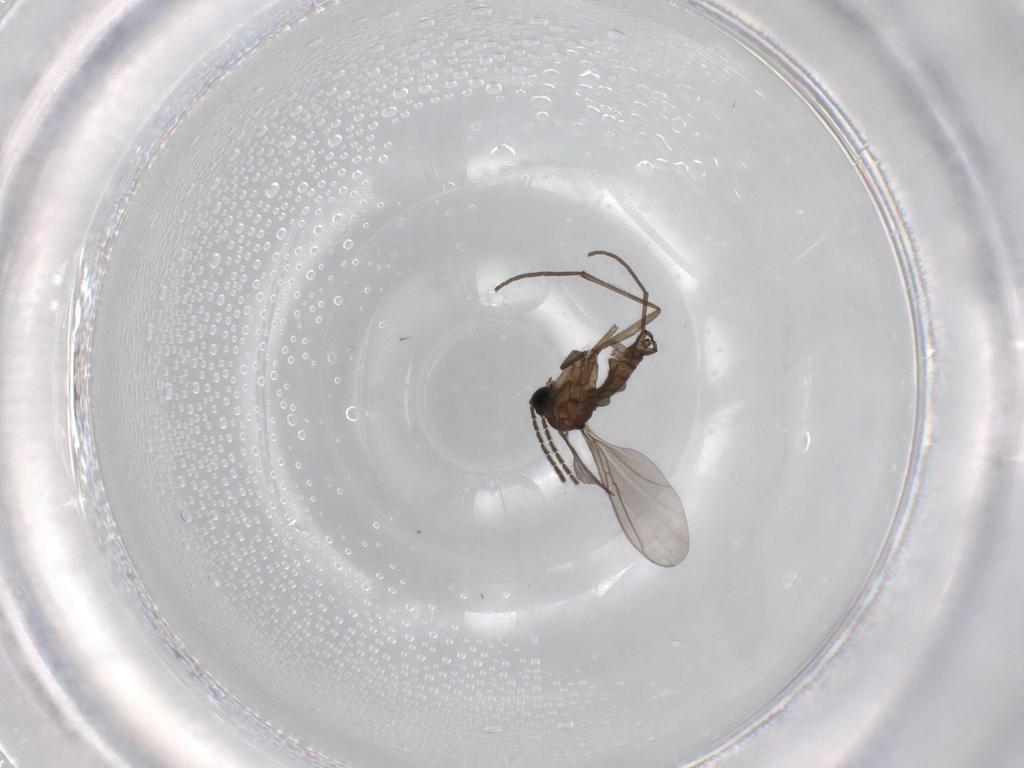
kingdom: Animalia
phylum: Arthropoda
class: Insecta
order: Diptera
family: Sciaridae
